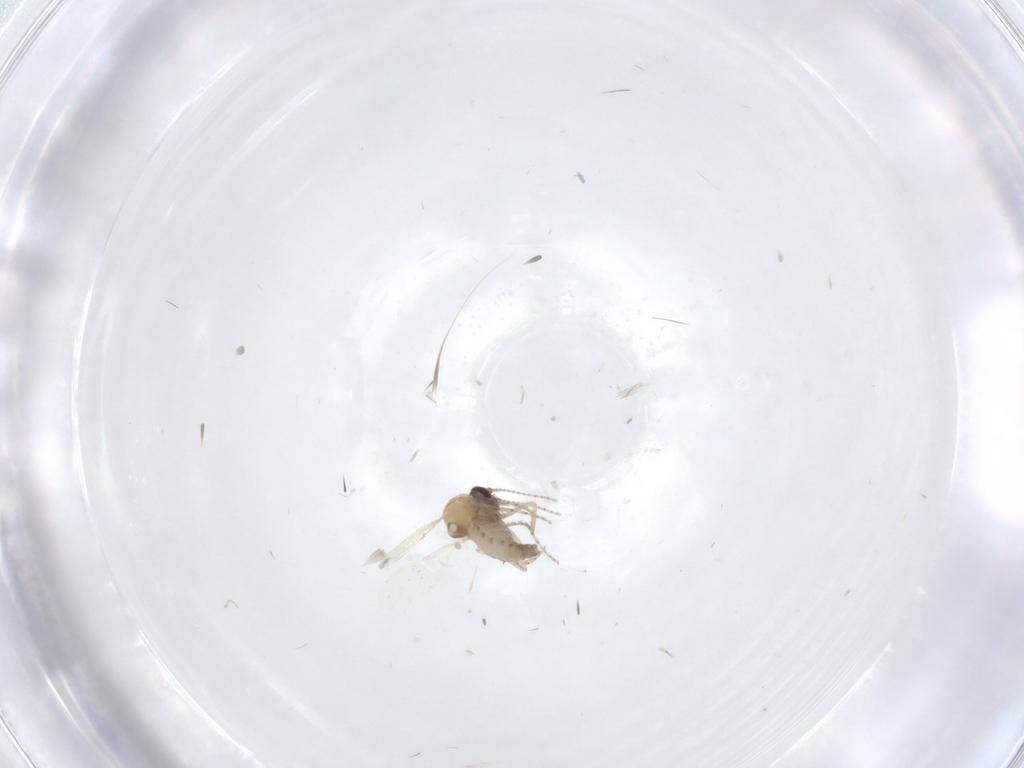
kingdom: Animalia
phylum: Arthropoda
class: Insecta
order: Diptera
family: Ceratopogonidae
